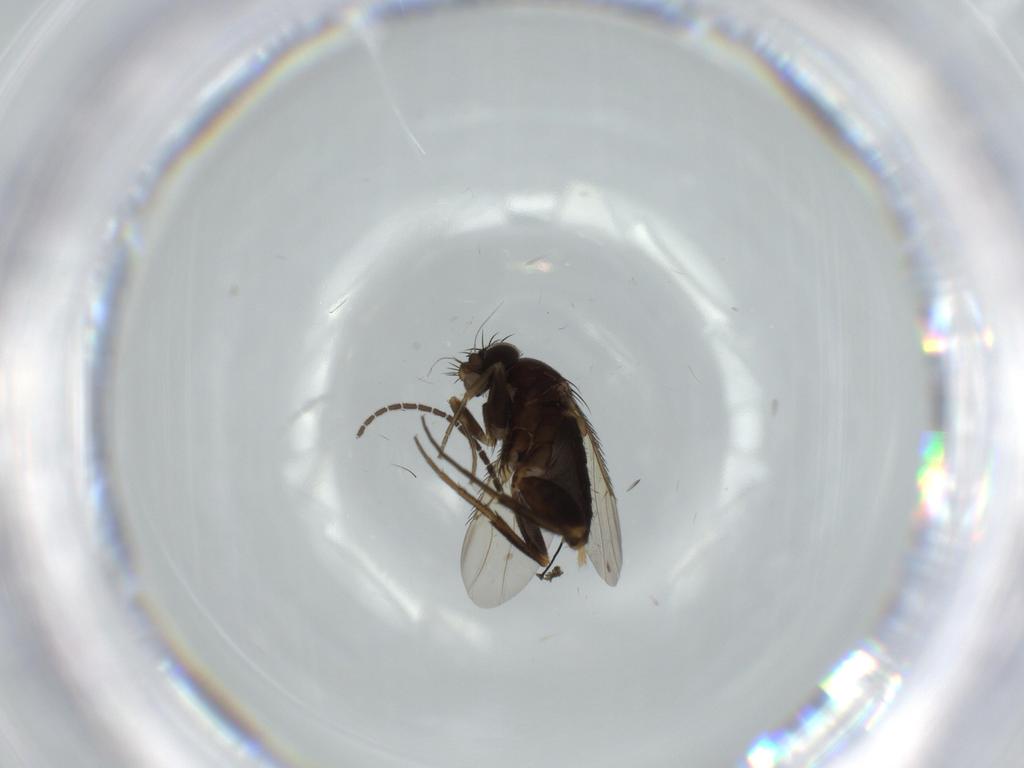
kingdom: Animalia
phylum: Arthropoda
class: Insecta
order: Diptera
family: Sciaridae
